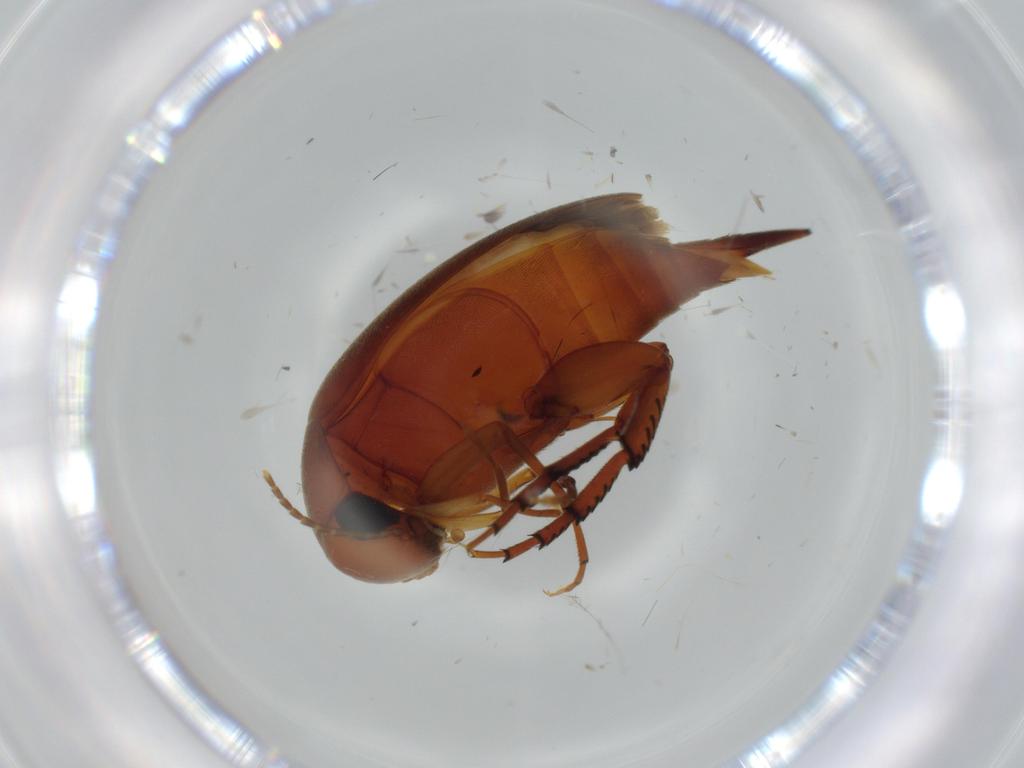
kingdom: Animalia
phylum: Arthropoda
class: Insecta
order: Coleoptera
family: Mordellidae
